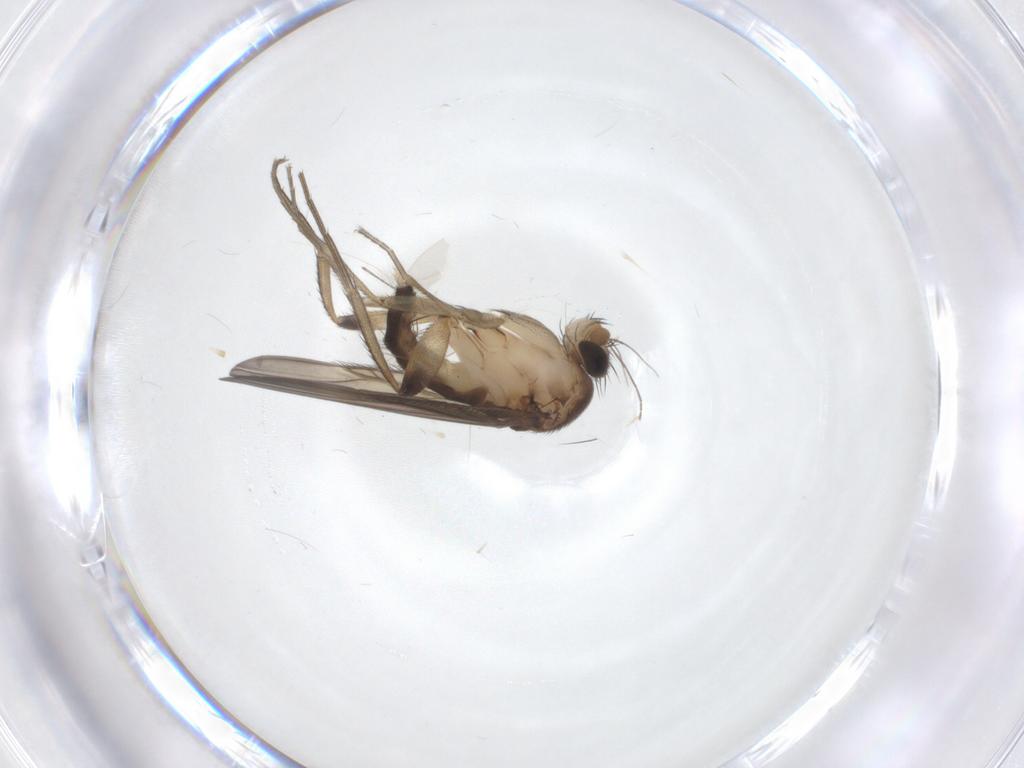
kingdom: Animalia
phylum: Arthropoda
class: Insecta
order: Diptera
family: Phoridae
